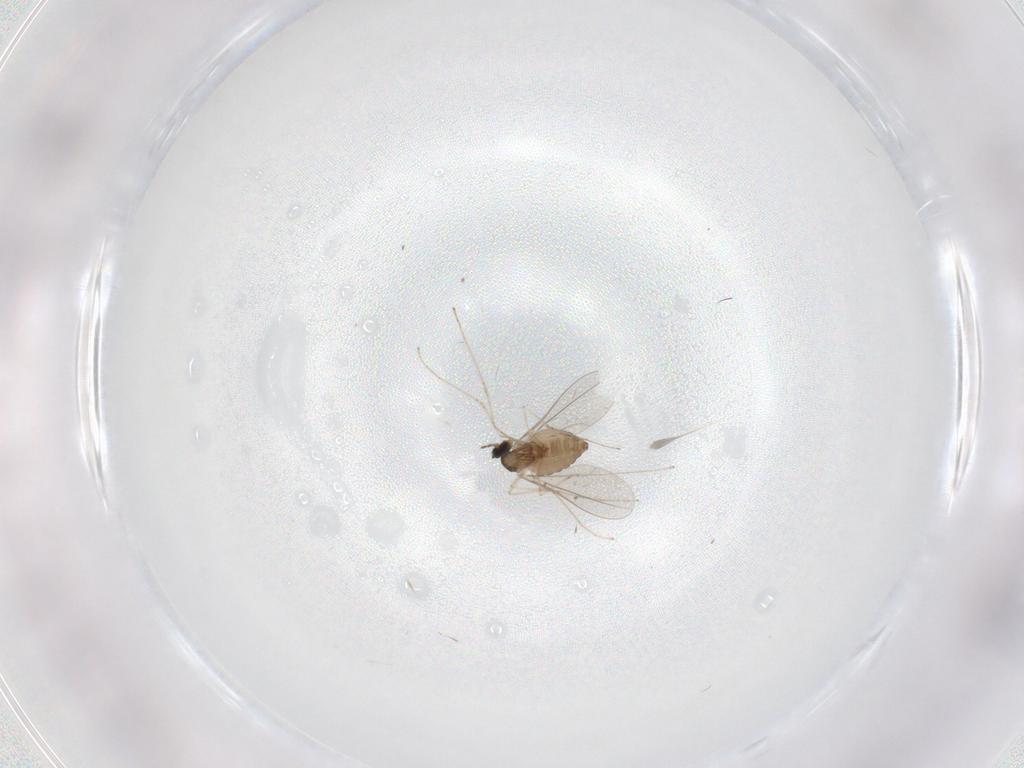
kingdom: Animalia
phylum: Arthropoda
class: Insecta
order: Diptera
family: Cecidomyiidae
